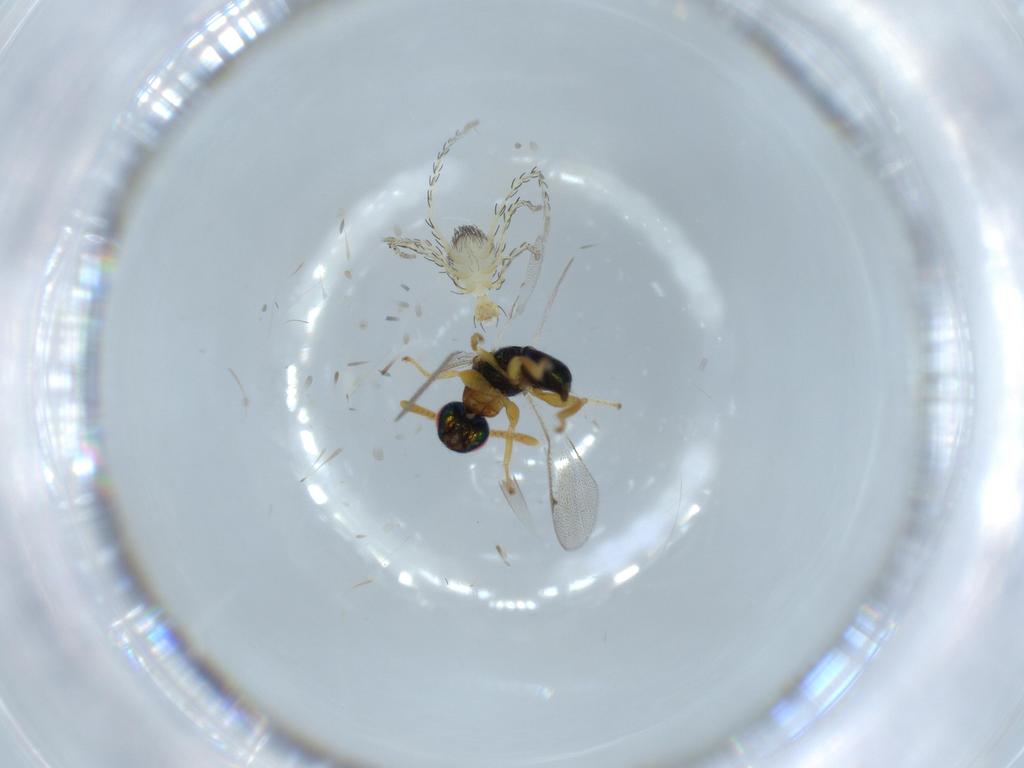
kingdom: Animalia
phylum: Arthropoda
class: Arachnida
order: Trombidiformes
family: Erythraeidae
